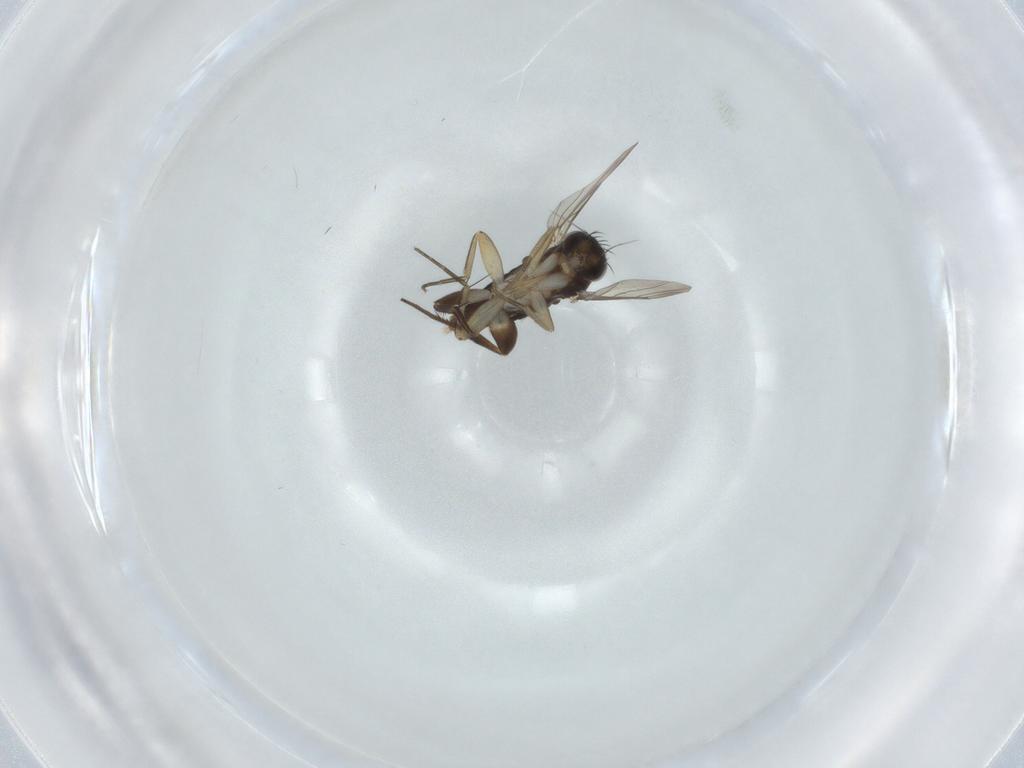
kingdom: Animalia
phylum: Arthropoda
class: Insecta
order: Diptera
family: Phoridae
